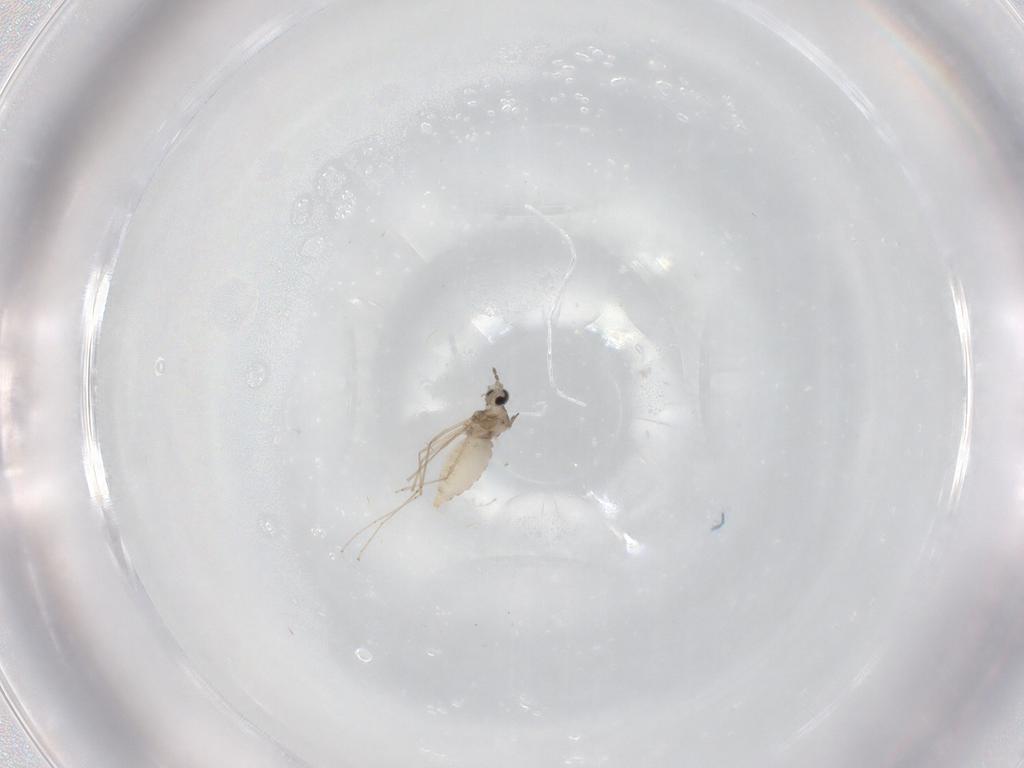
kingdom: Animalia
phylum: Arthropoda
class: Insecta
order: Diptera
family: Cecidomyiidae
